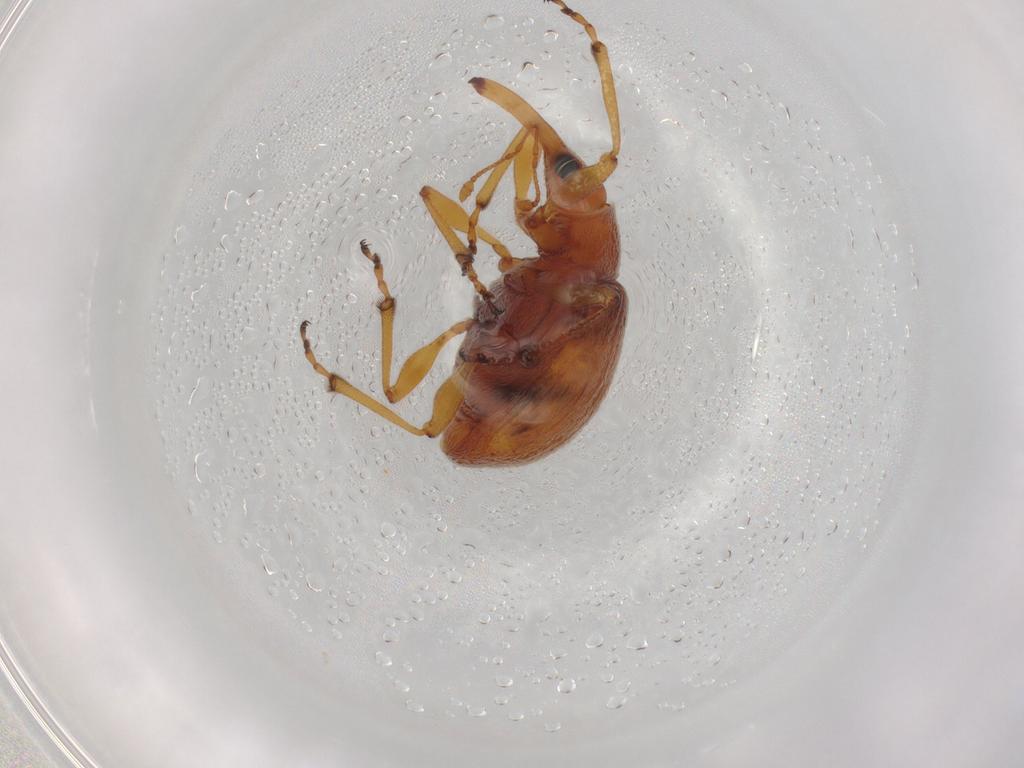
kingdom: Animalia
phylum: Arthropoda
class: Insecta
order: Coleoptera
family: Brentidae
